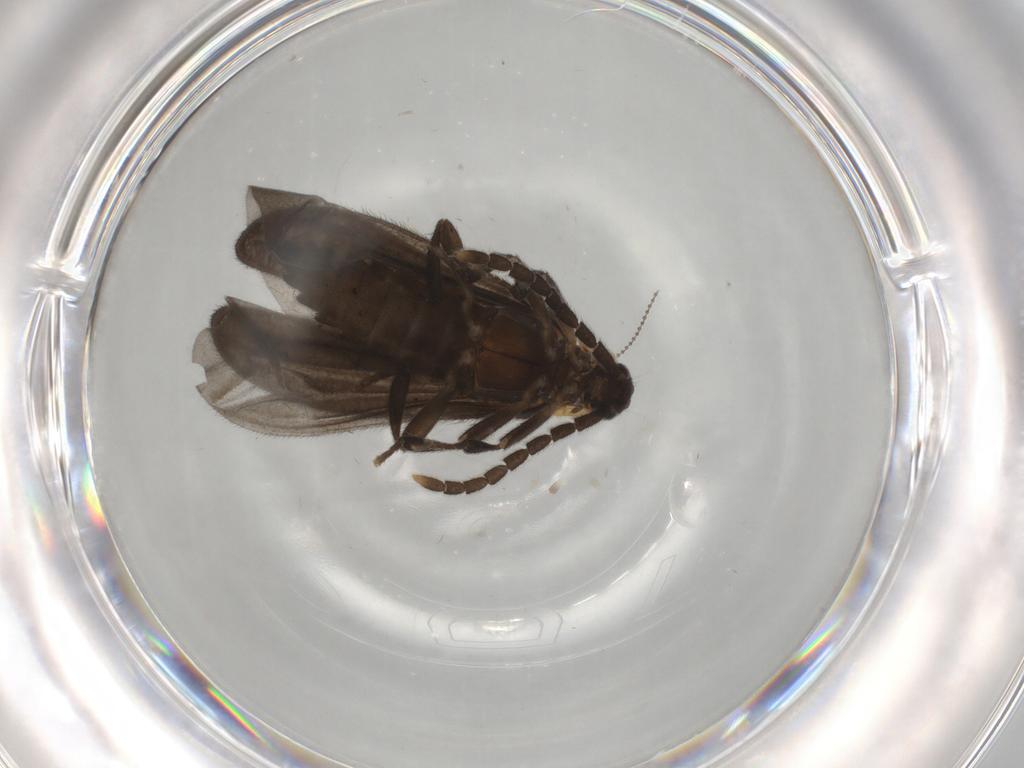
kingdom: Animalia
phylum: Arthropoda
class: Insecta
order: Coleoptera
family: Lycidae
